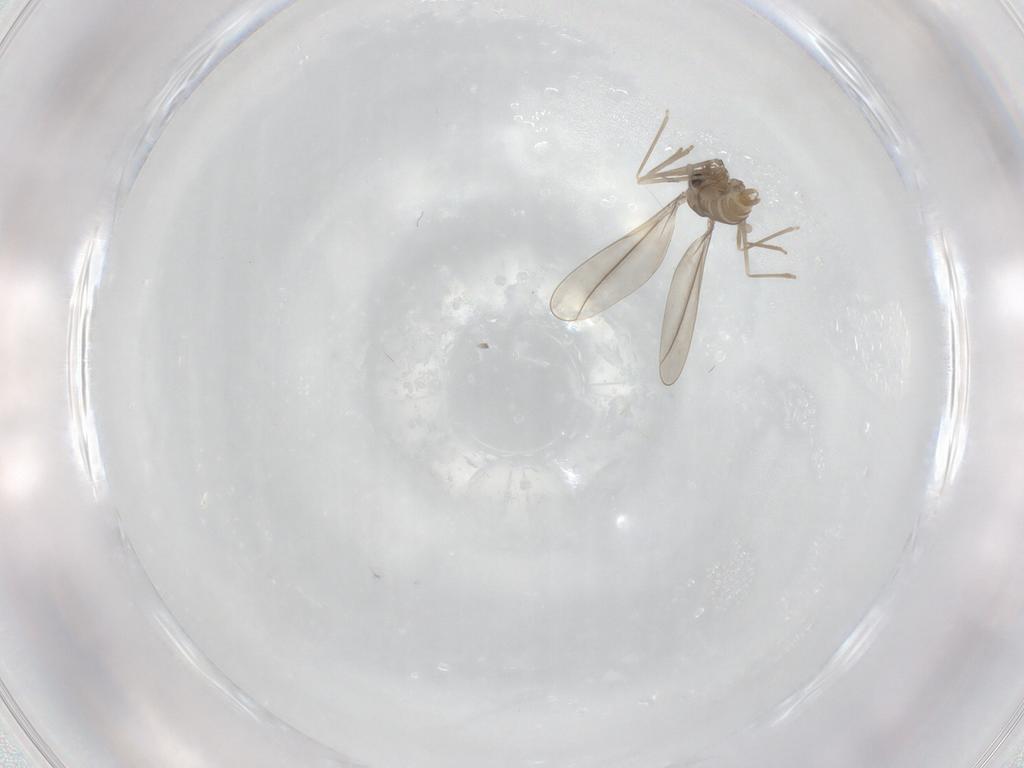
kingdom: Animalia
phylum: Arthropoda
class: Insecta
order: Diptera
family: Cecidomyiidae
